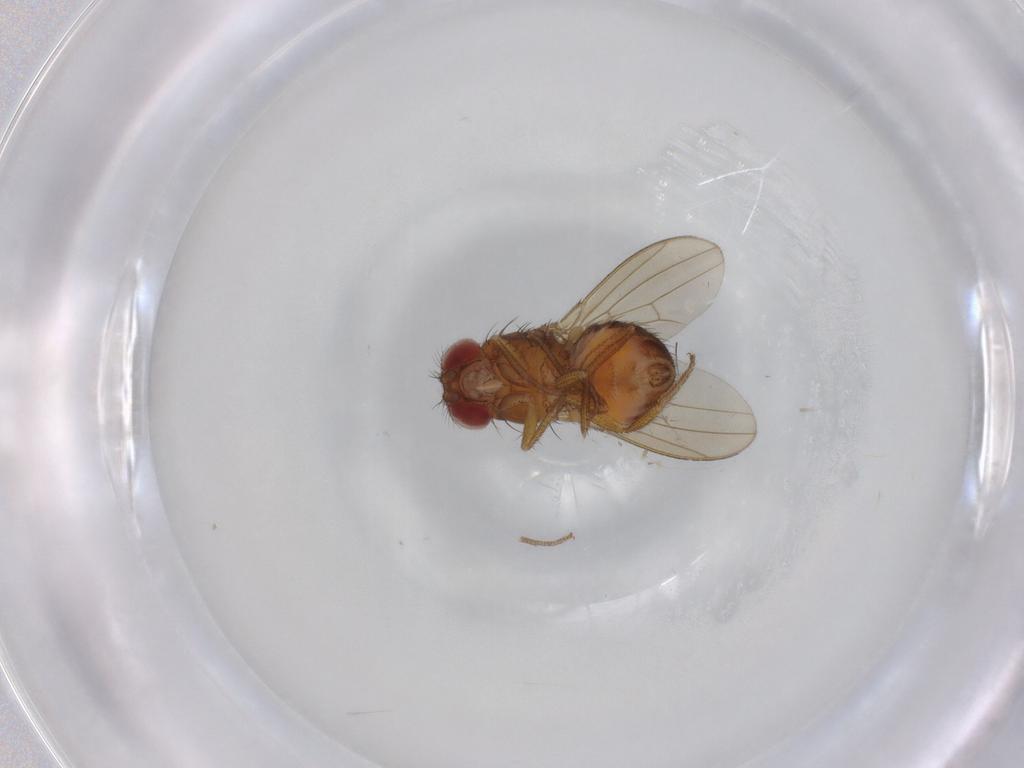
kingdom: Animalia
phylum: Arthropoda
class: Insecta
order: Diptera
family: Drosophilidae
